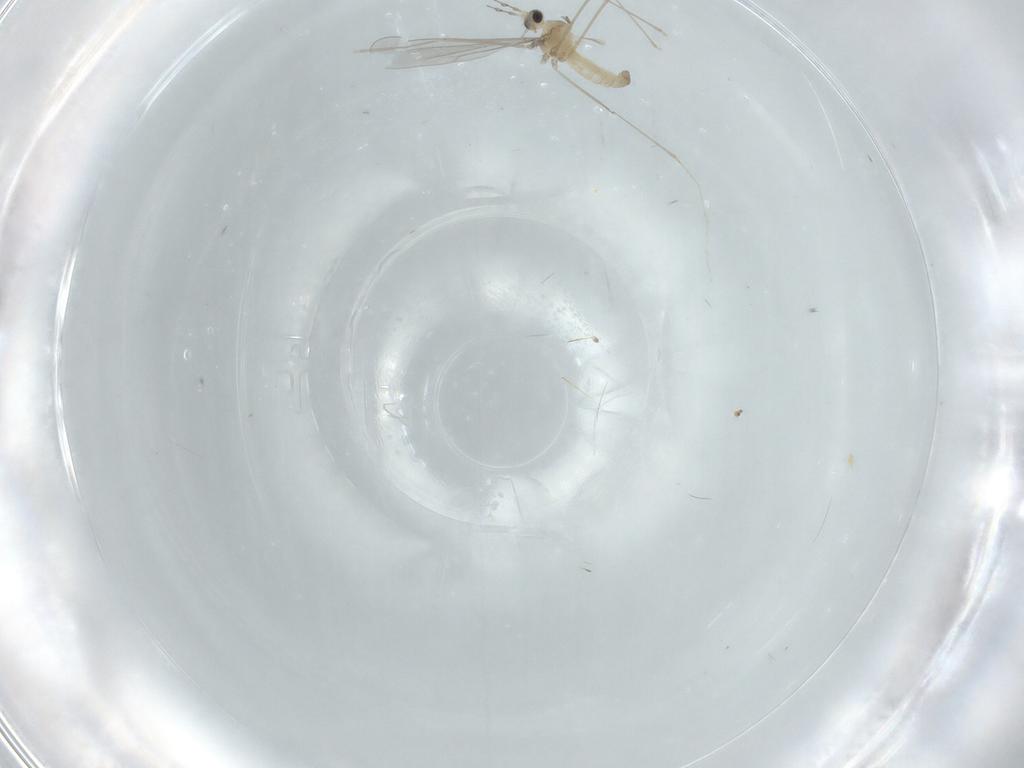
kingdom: Animalia
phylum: Arthropoda
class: Insecta
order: Diptera
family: Cecidomyiidae
